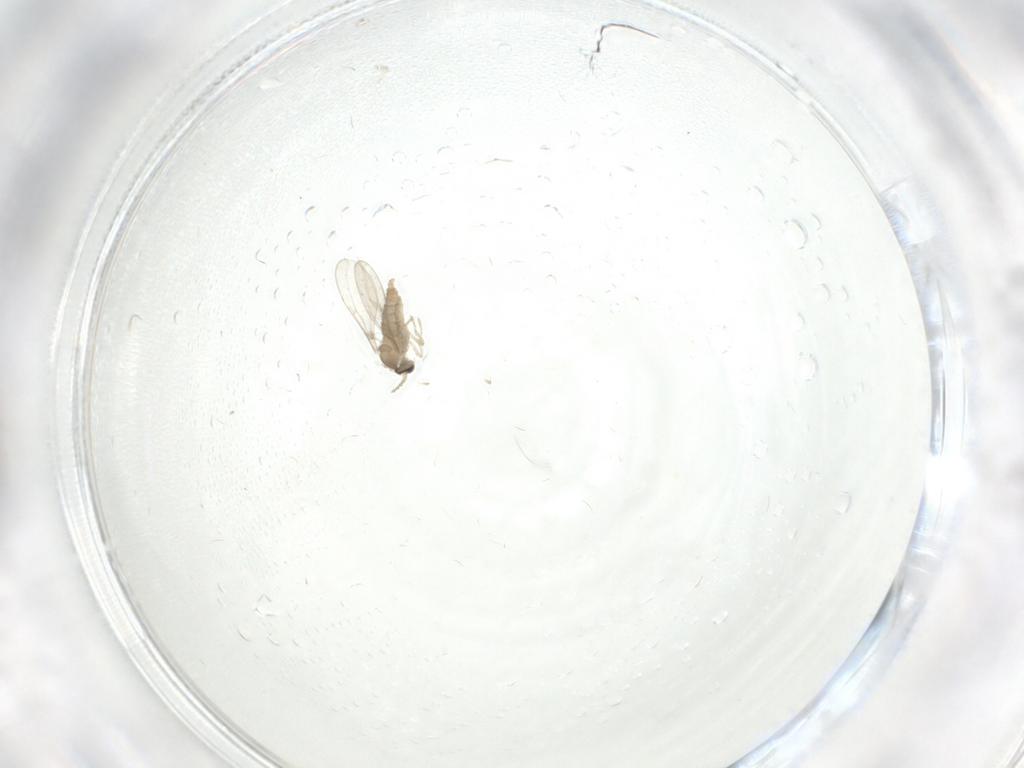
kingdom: Animalia
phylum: Arthropoda
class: Insecta
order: Diptera
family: Cecidomyiidae
